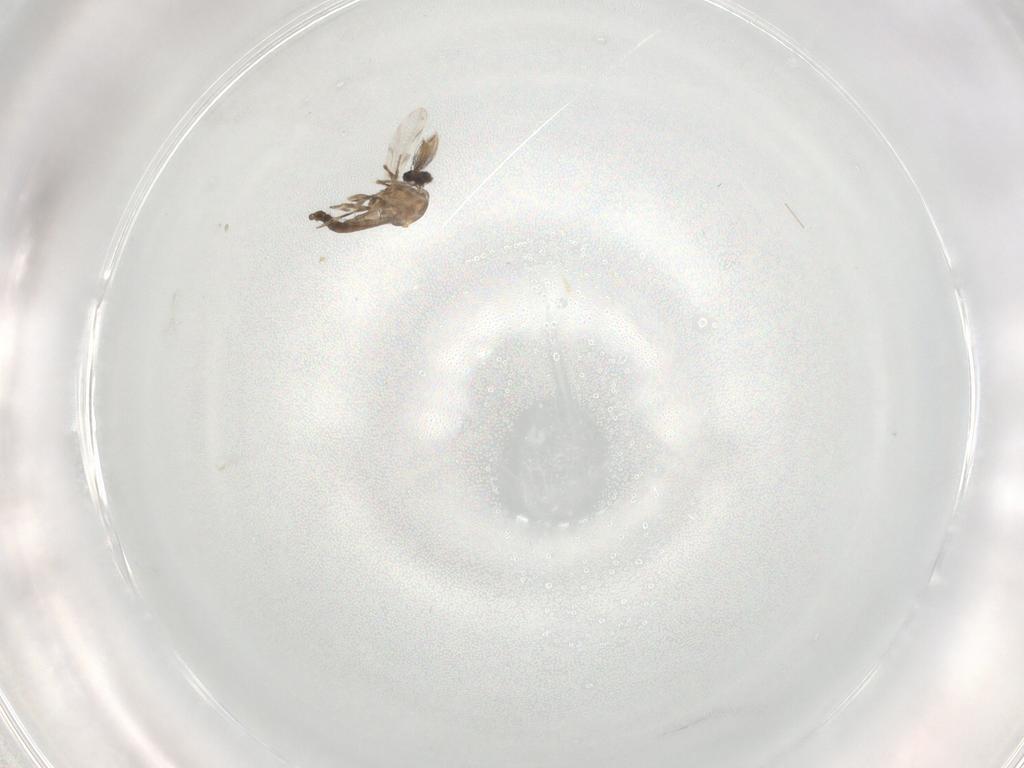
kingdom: Animalia
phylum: Arthropoda
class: Insecta
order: Diptera
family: Ceratopogonidae
